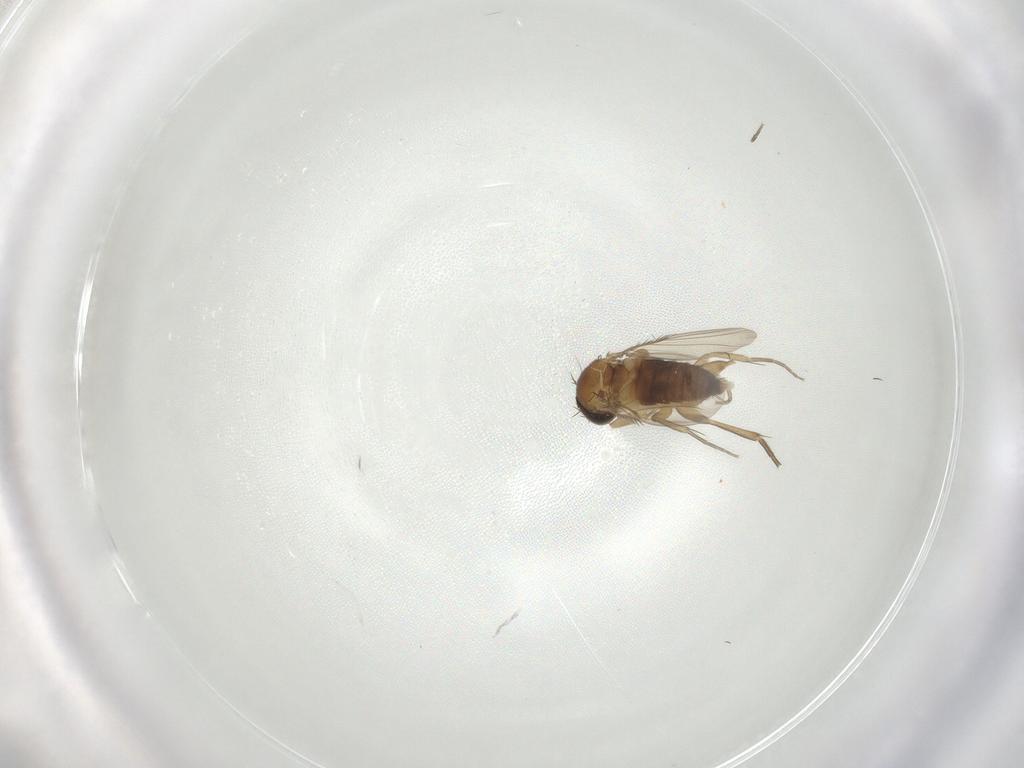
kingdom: Animalia
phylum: Arthropoda
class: Insecta
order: Diptera
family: Phoridae
